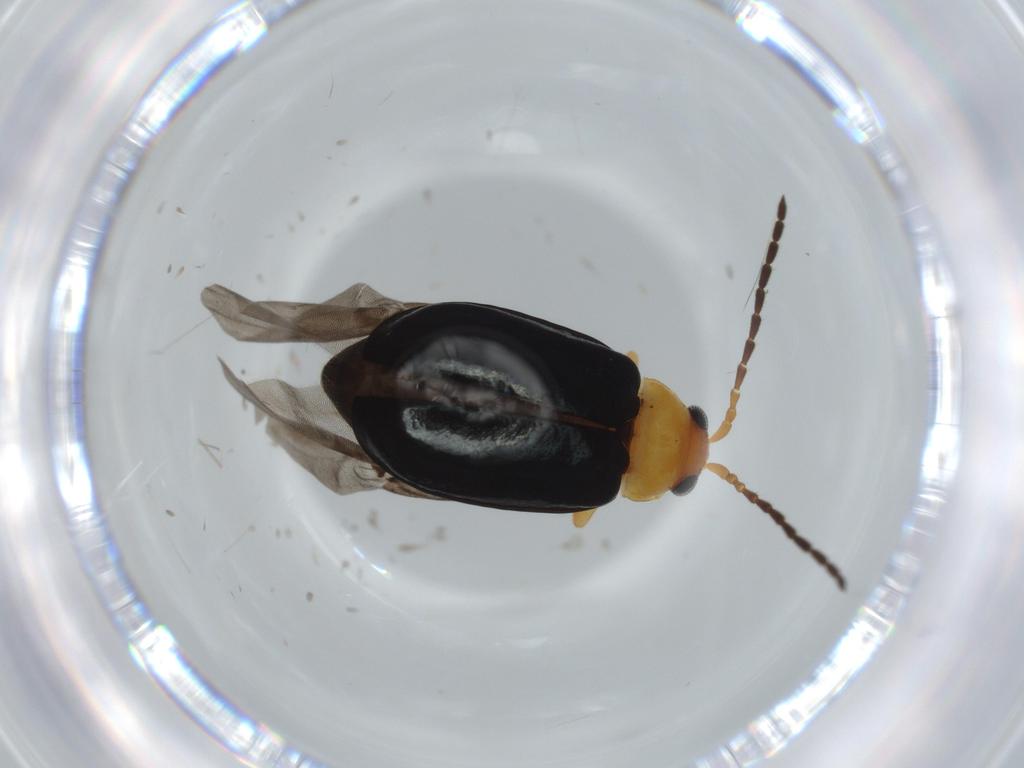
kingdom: Animalia
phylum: Arthropoda
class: Insecta
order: Coleoptera
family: Chrysomelidae
